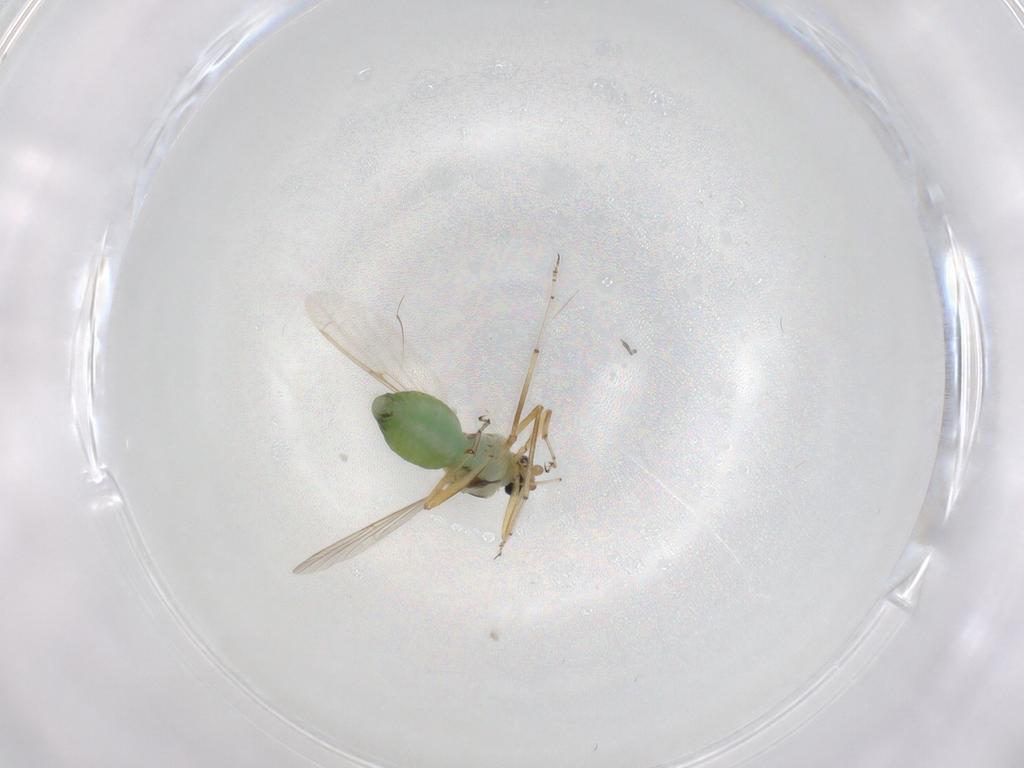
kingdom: Animalia
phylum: Arthropoda
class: Insecta
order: Diptera
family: Ceratopogonidae
